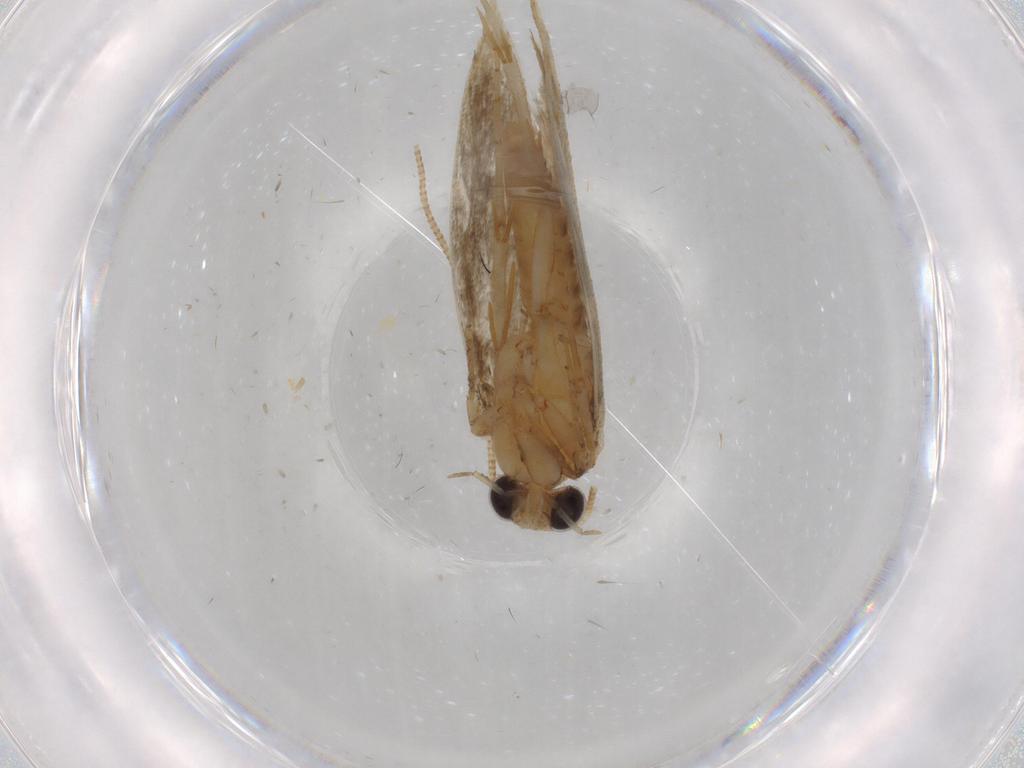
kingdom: Animalia
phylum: Arthropoda
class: Insecta
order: Lepidoptera
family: Tineidae
